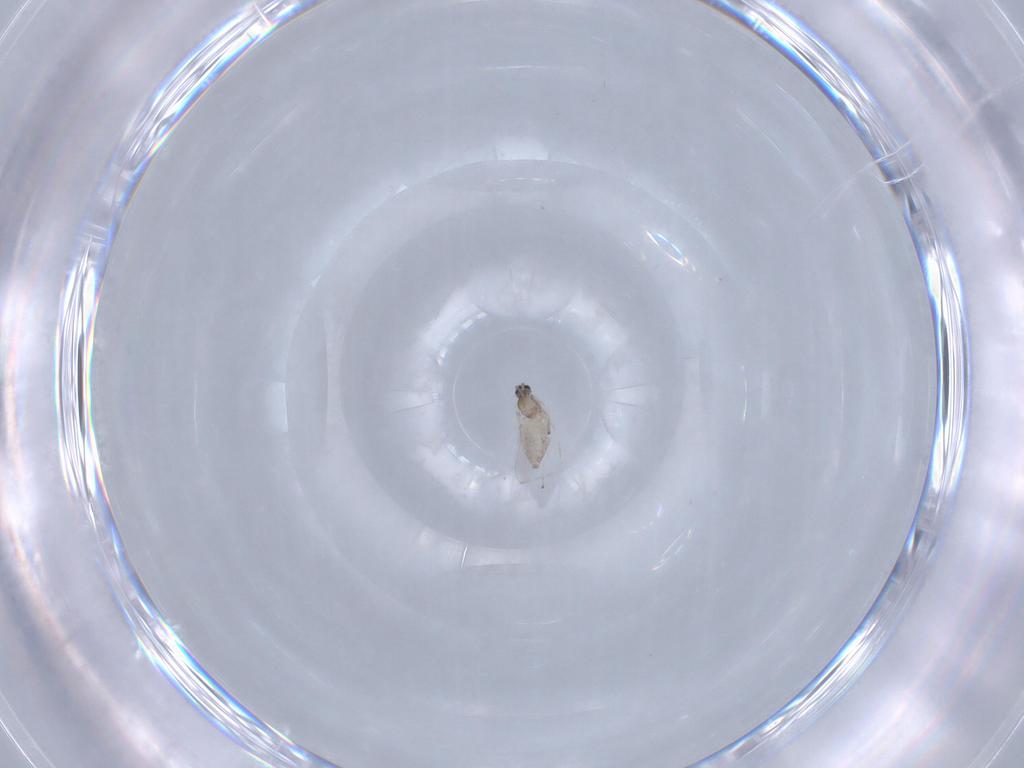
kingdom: Animalia
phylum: Arthropoda
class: Insecta
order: Diptera
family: Cecidomyiidae
